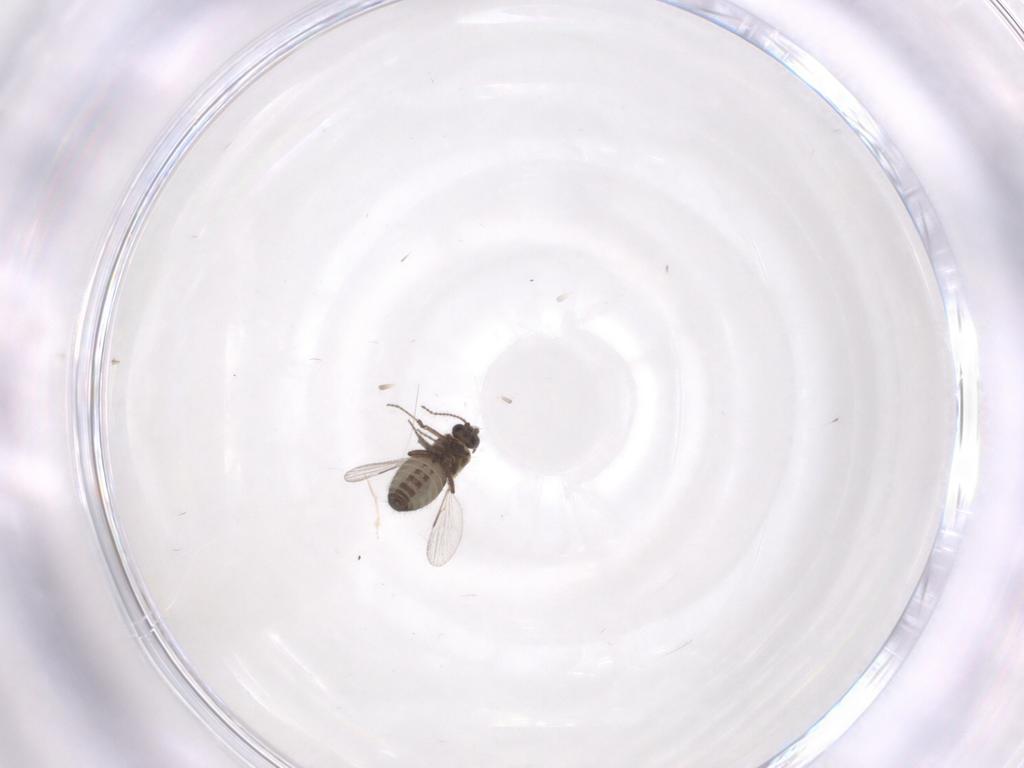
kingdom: Animalia
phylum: Arthropoda
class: Insecta
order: Diptera
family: Ceratopogonidae
